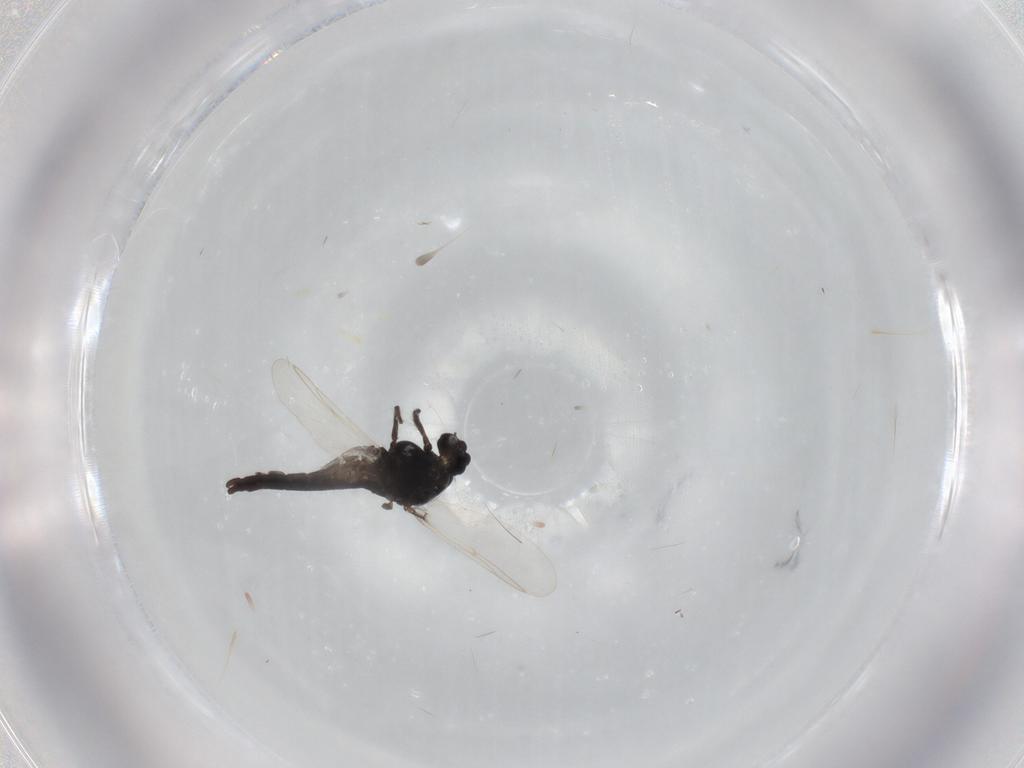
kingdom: Animalia
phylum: Arthropoda
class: Insecta
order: Diptera
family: Chironomidae
